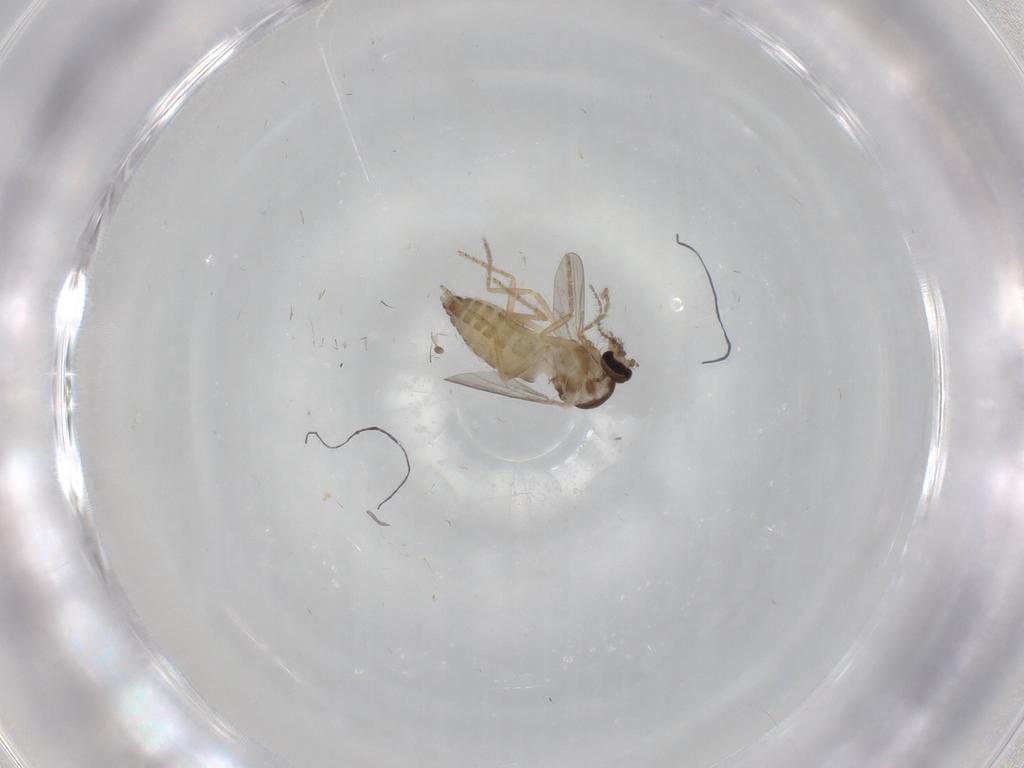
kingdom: Animalia
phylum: Arthropoda
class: Insecta
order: Diptera
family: Ceratopogonidae
